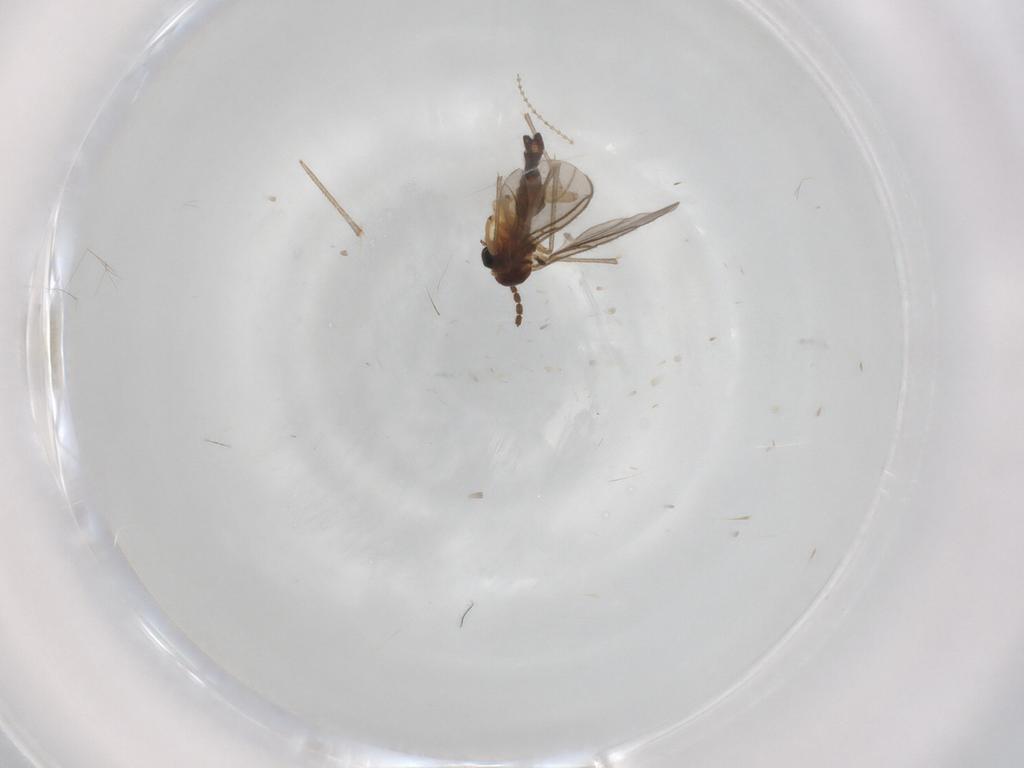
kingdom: Animalia
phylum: Arthropoda
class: Insecta
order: Diptera
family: Sciaridae
